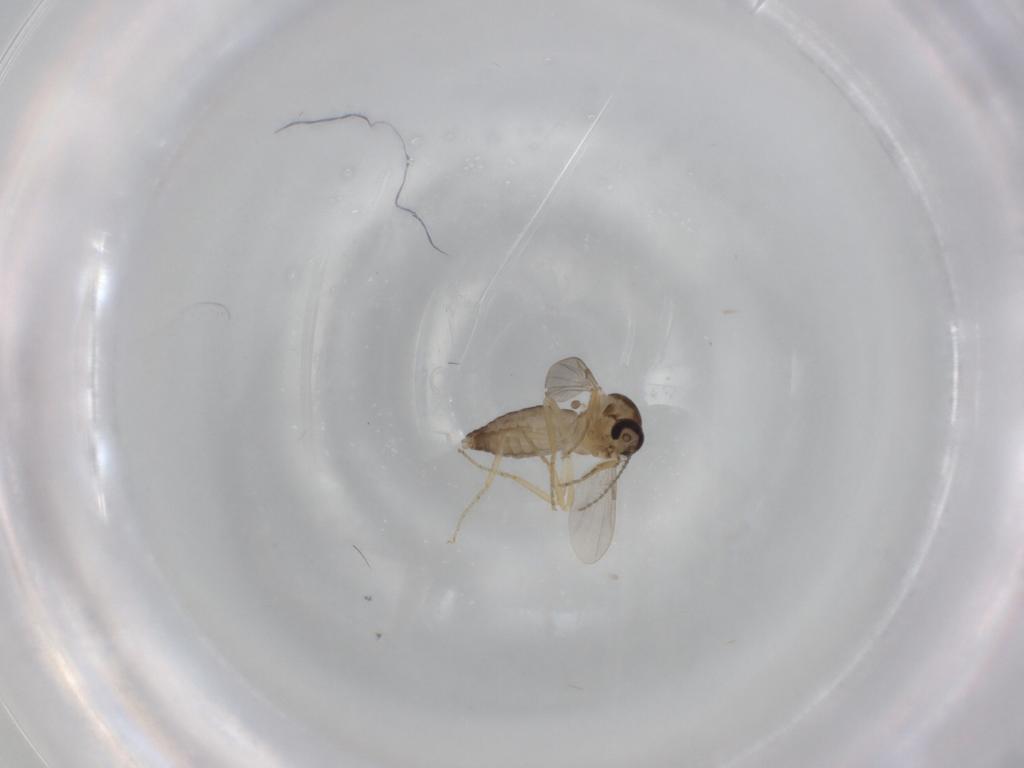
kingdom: Animalia
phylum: Arthropoda
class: Insecta
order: Diptera
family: Ceratopogonidae
